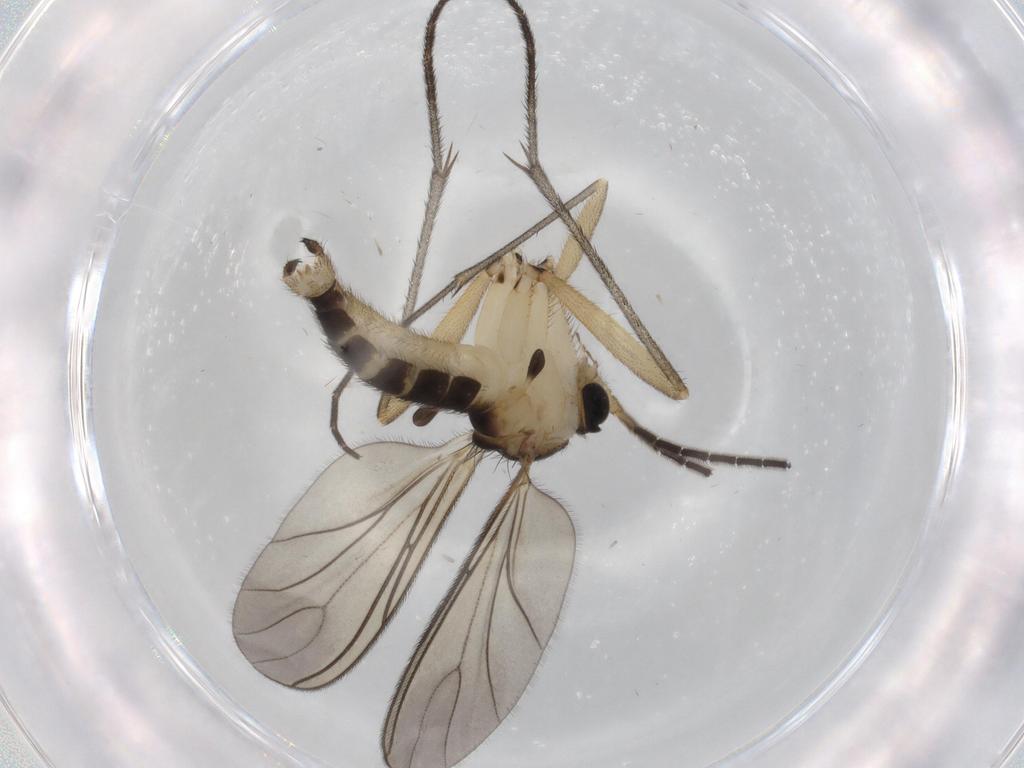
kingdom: Animalia
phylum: Arthropoda
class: Insecta
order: Diptera
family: Sciaridae
